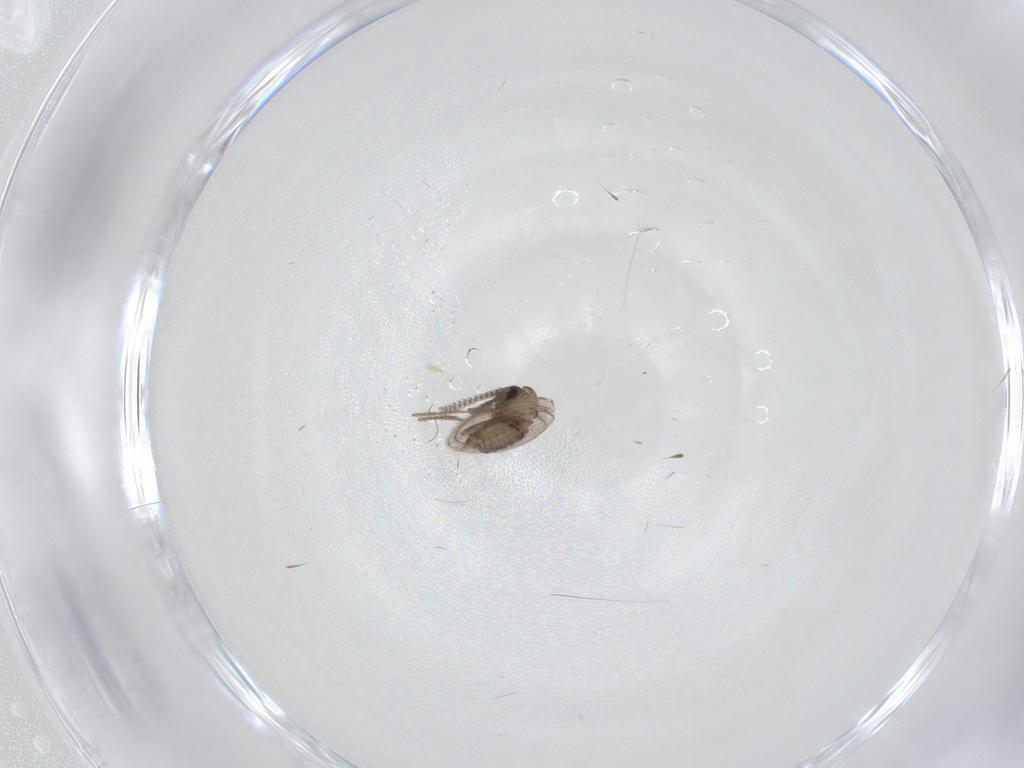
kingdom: Animalia
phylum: Arthropoda
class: Insecta
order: Diptera
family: Psychodidae
